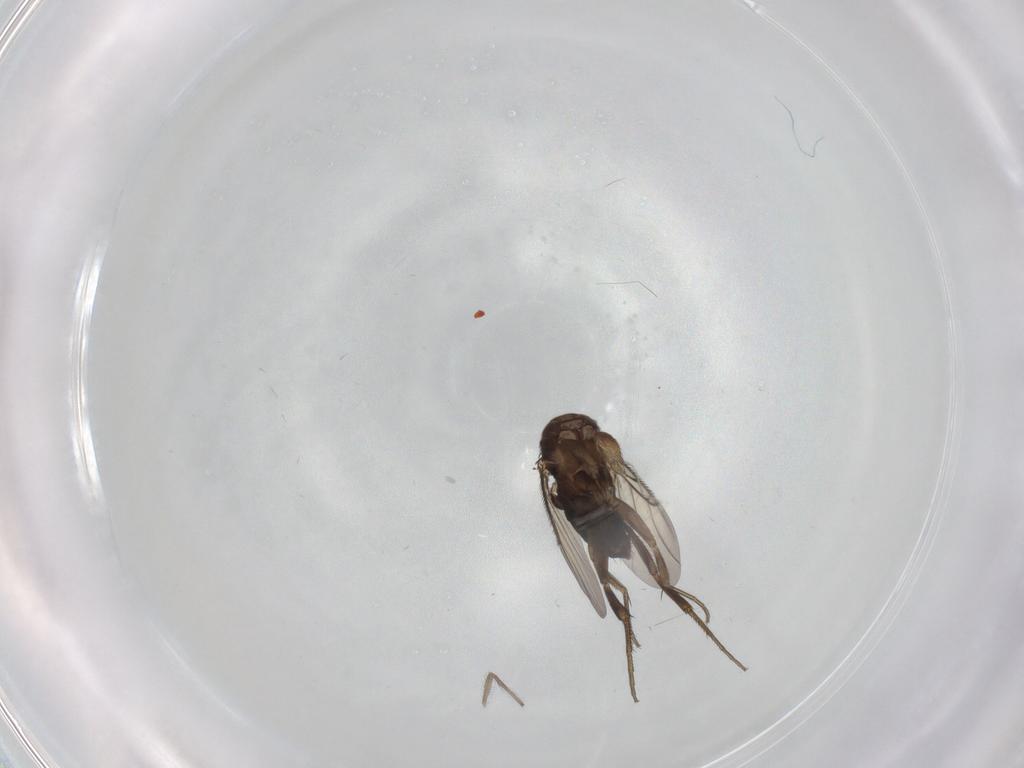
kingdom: Animalia
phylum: Arthropoda
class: Insecta
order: Diptera
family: Phoridae
